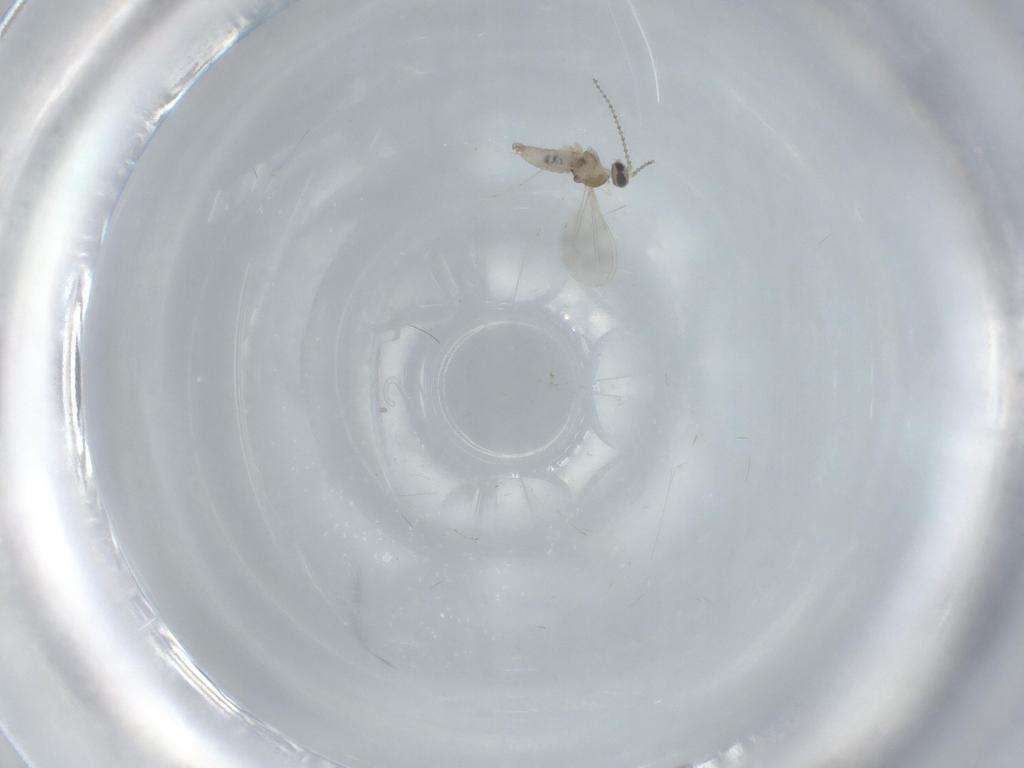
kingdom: Animalia
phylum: Arthropoda
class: Insecta
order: Diptera
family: Cecidomyiidae
